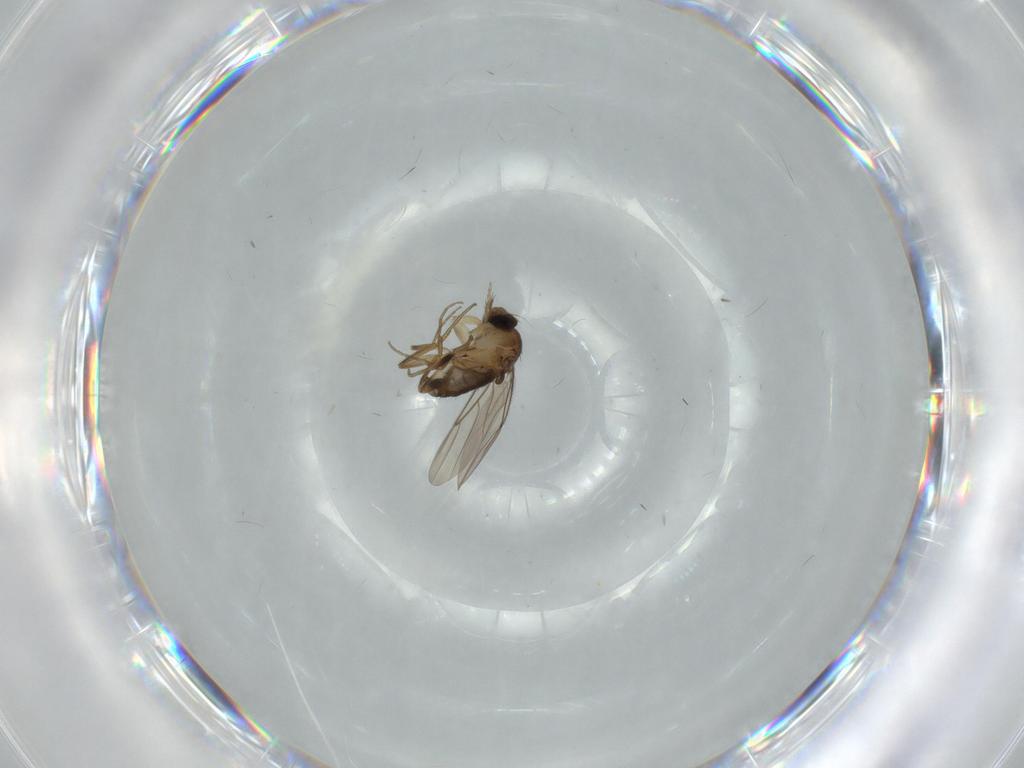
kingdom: Animalia
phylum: Arthropoda
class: Insecta
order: Diptera
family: Phoridae
